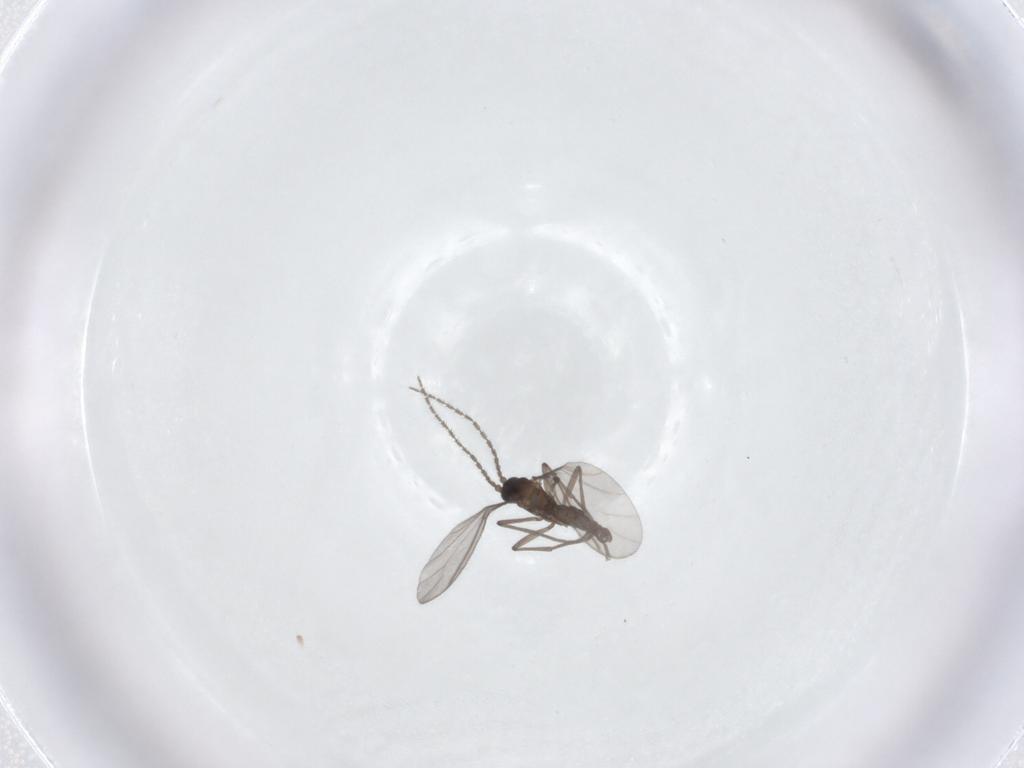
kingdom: Animalia
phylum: Arthropoda
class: Insecta
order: Diptera
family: Sciaridae
